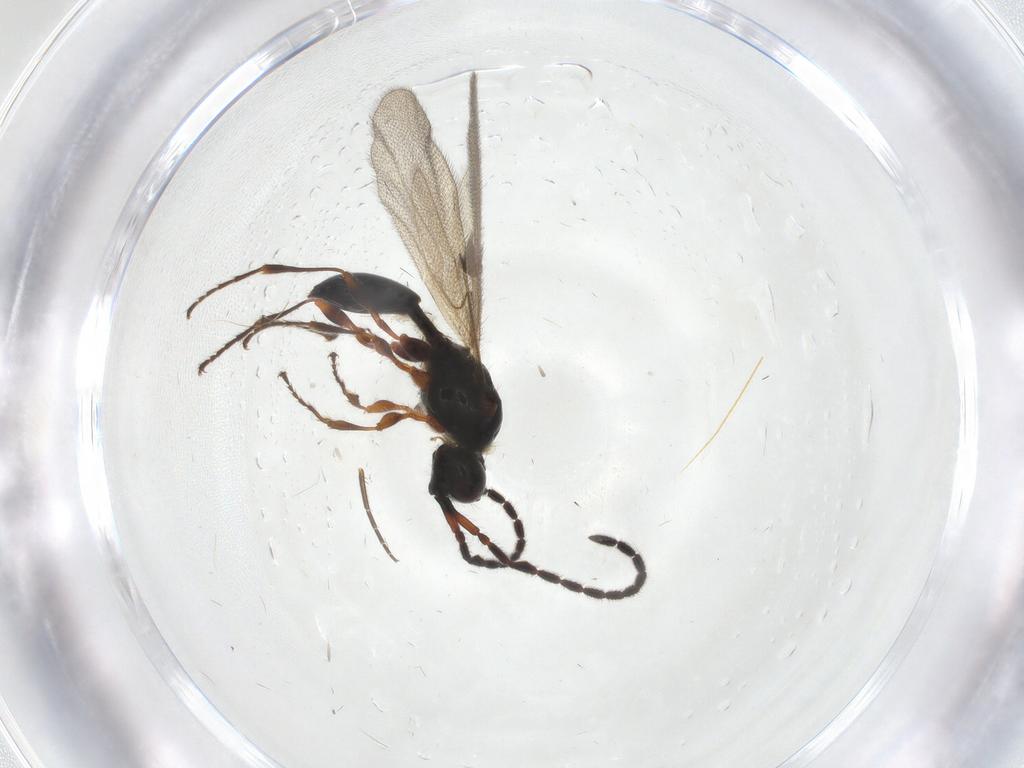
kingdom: Animalia
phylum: Arthropoda
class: Insecta
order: Hymenoptera
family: Diapriidae
